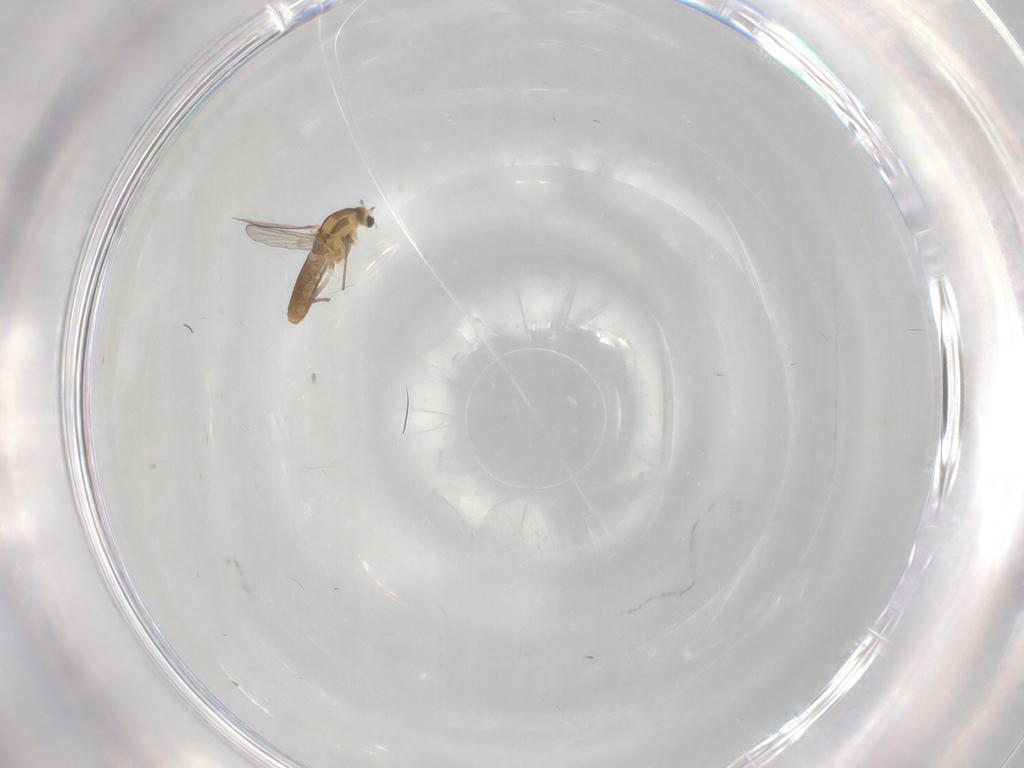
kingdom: Animalia
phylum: Arthropoda
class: Insecta
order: Diptera
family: Chironomidae
